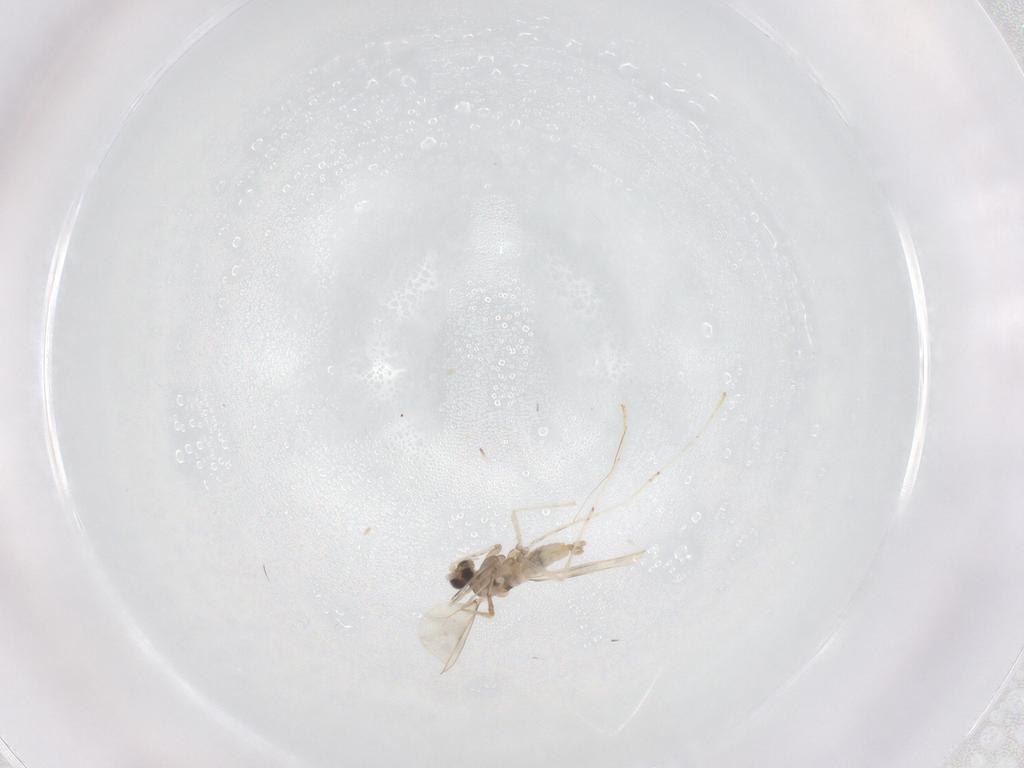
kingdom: Animalia
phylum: Arthropoda
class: Insecta
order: Diptera
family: Cecidomyiidae
